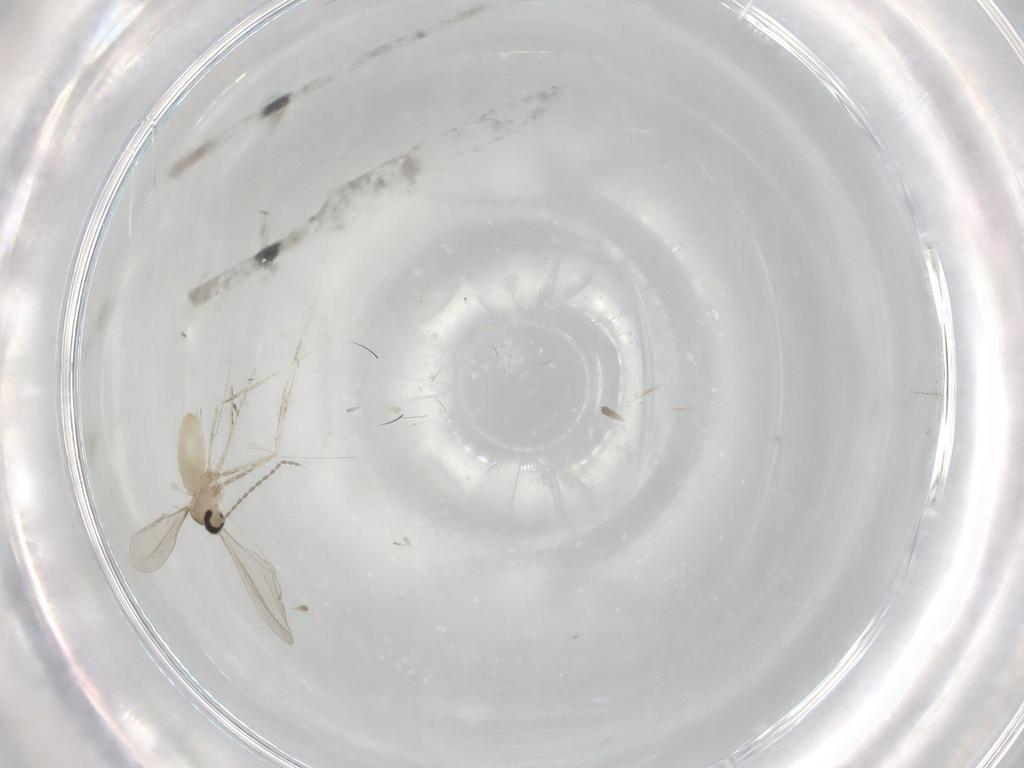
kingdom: Animalia
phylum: Arthropoda
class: Insecta
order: Diptera
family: Cecidomyiidae
